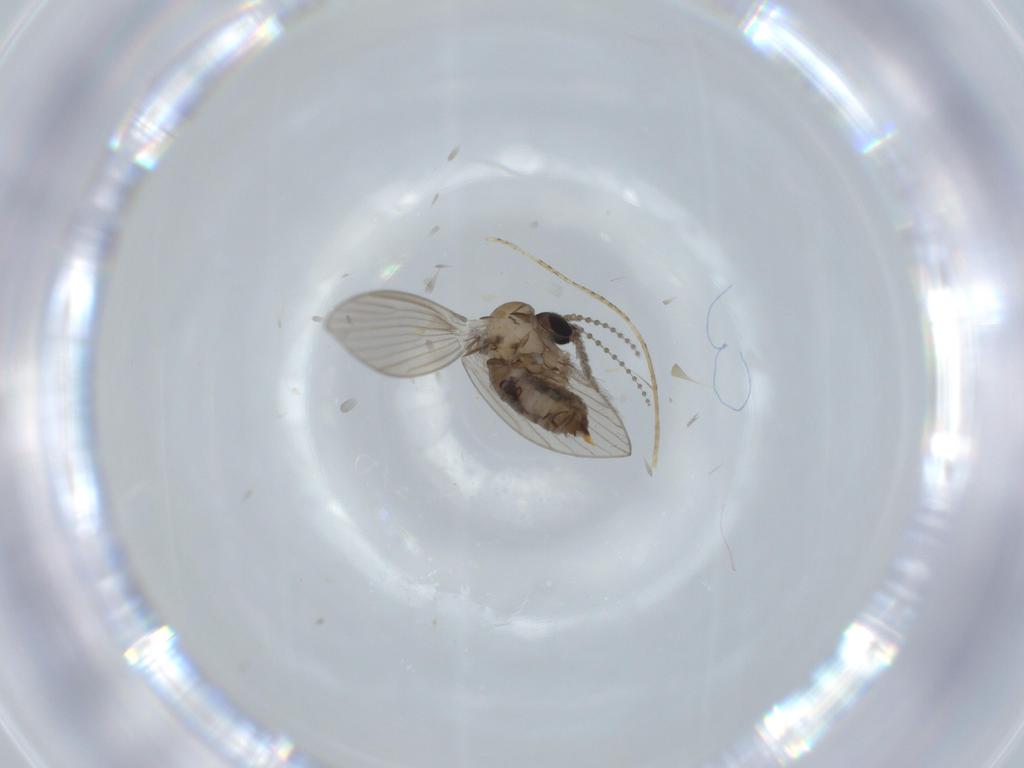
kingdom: Animalia
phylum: Arthropoda
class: Insecta
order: Diptera
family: Psychodidae
